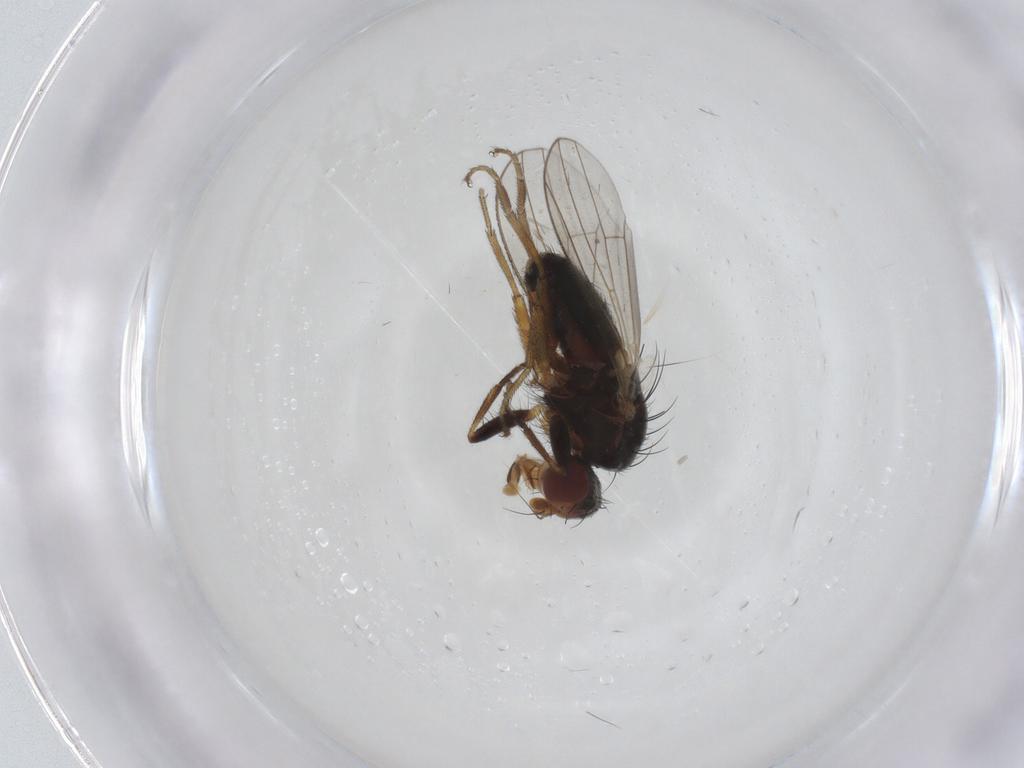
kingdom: Animalia
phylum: Arthropoda
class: Insecta
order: Diptera
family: Heleomyzidae
